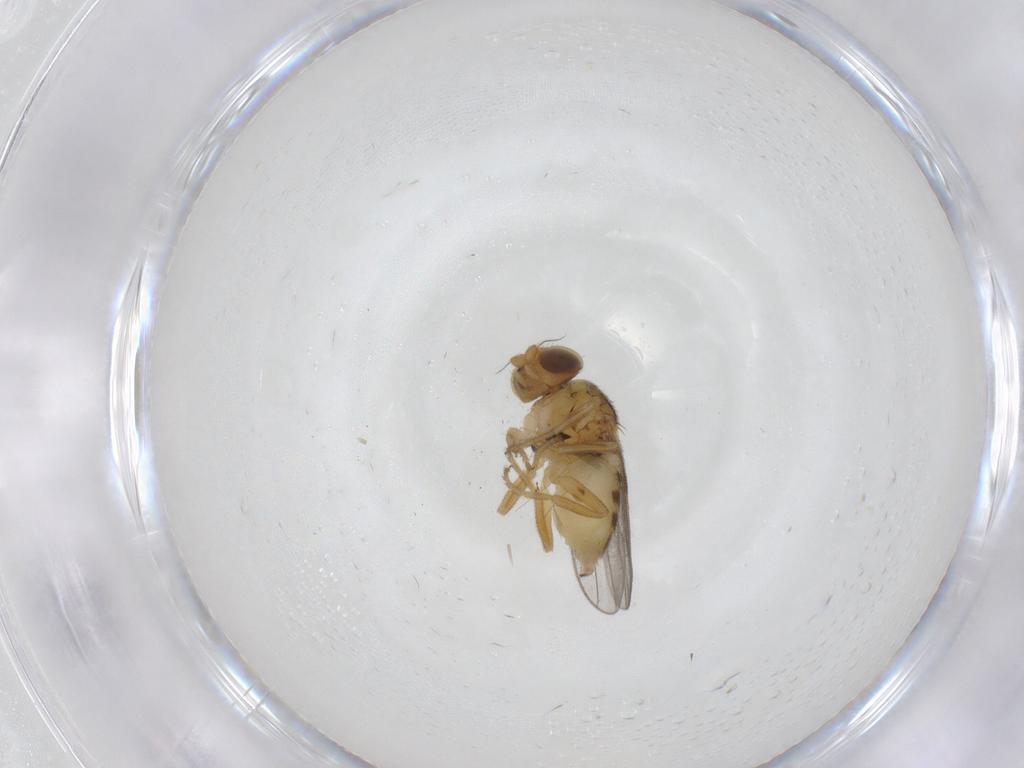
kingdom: Animalia
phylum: Arthropoda
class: Insecta
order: Diptera
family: Chloropidae
